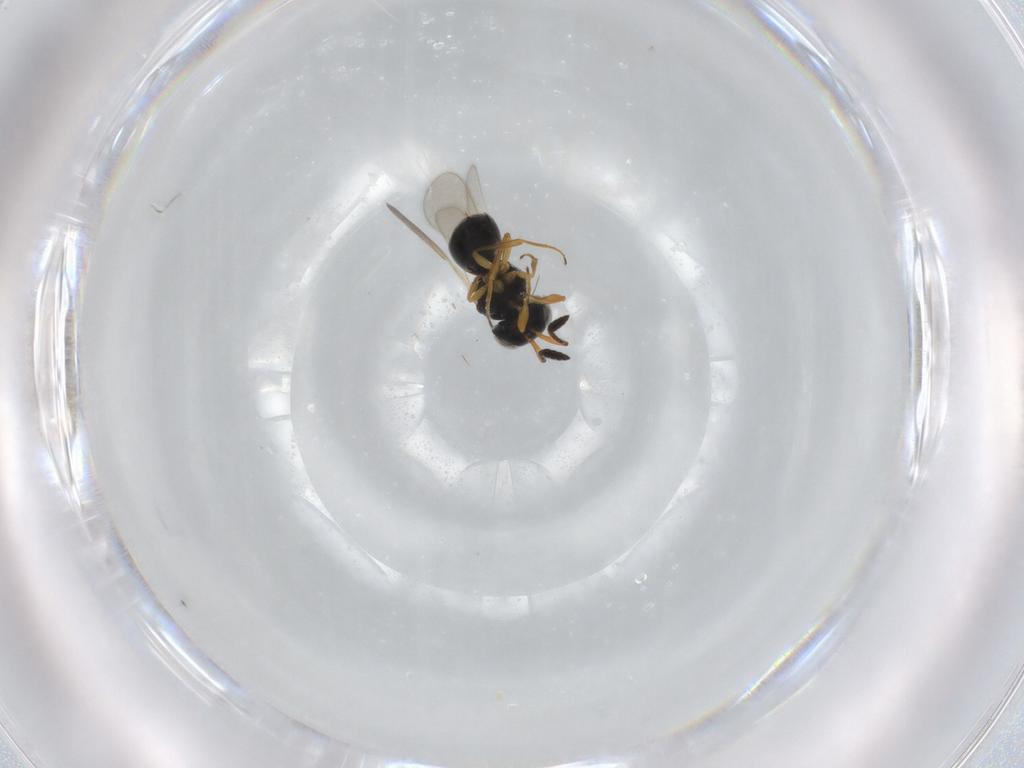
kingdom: Animalia
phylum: Arthropoda
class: Insecta
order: Hymenoptera
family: Scelionidae
